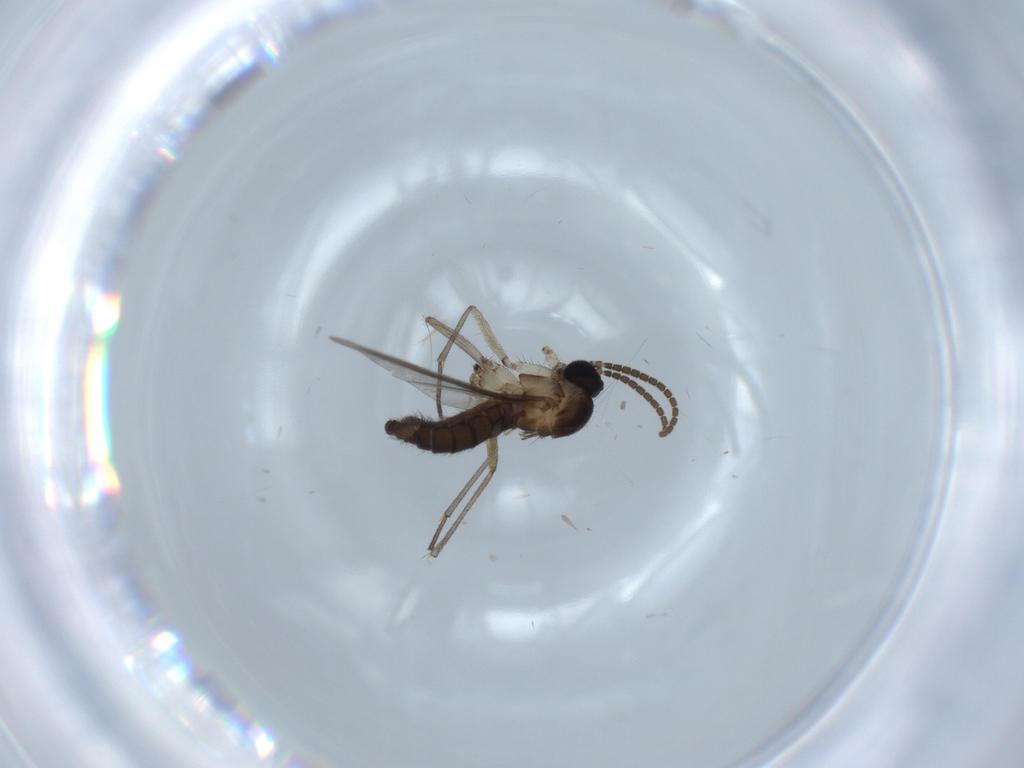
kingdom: Animalia
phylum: Arthropoda
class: Insecta
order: Diptera
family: Sciaridae
